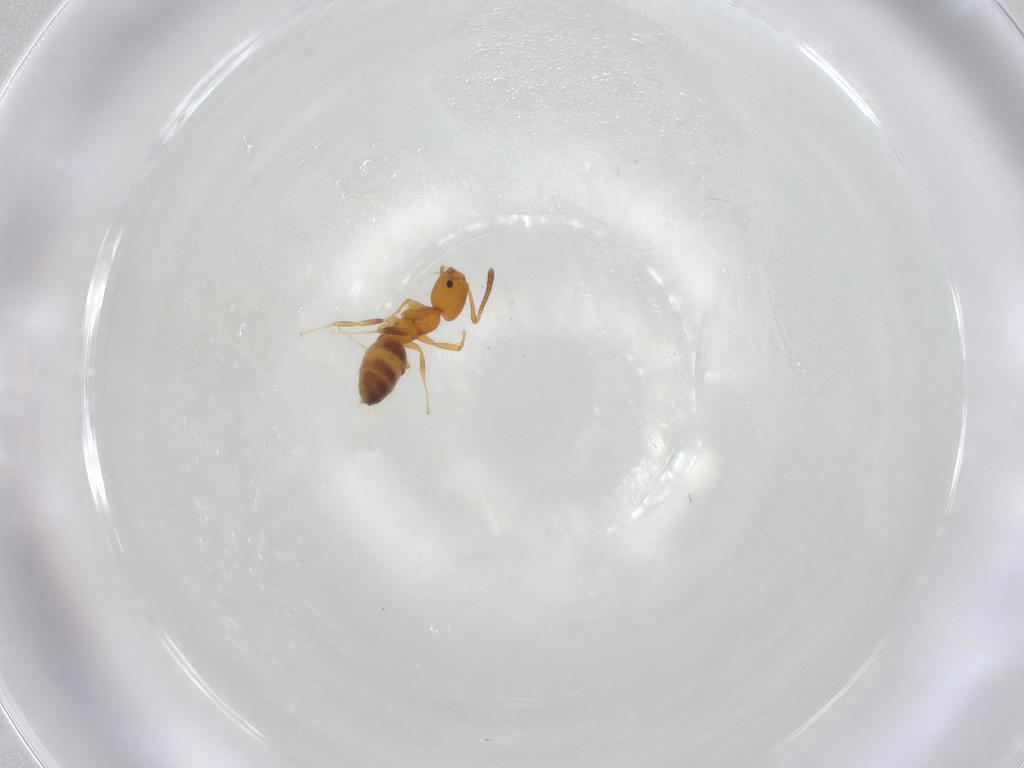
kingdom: Animalia
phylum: Arthropoda
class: Insecta
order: Hymenoptera
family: Formicidae
